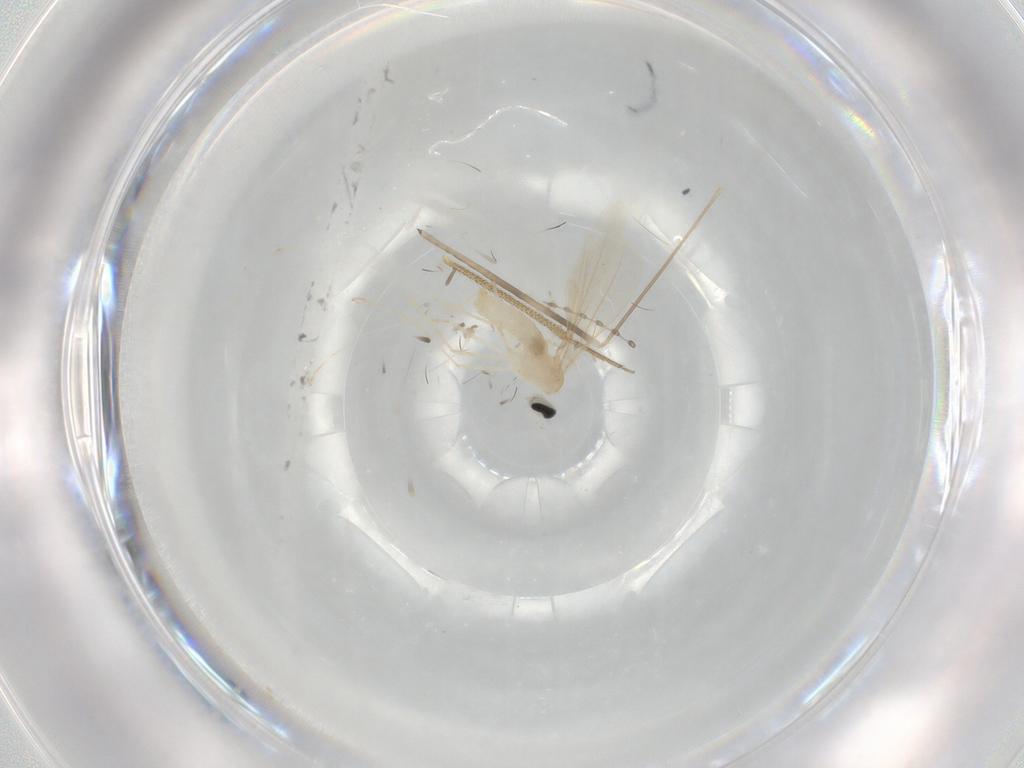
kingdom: Animalia
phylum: Arthropoda
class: Insecta
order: Diptera
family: Cecidomyiidae
